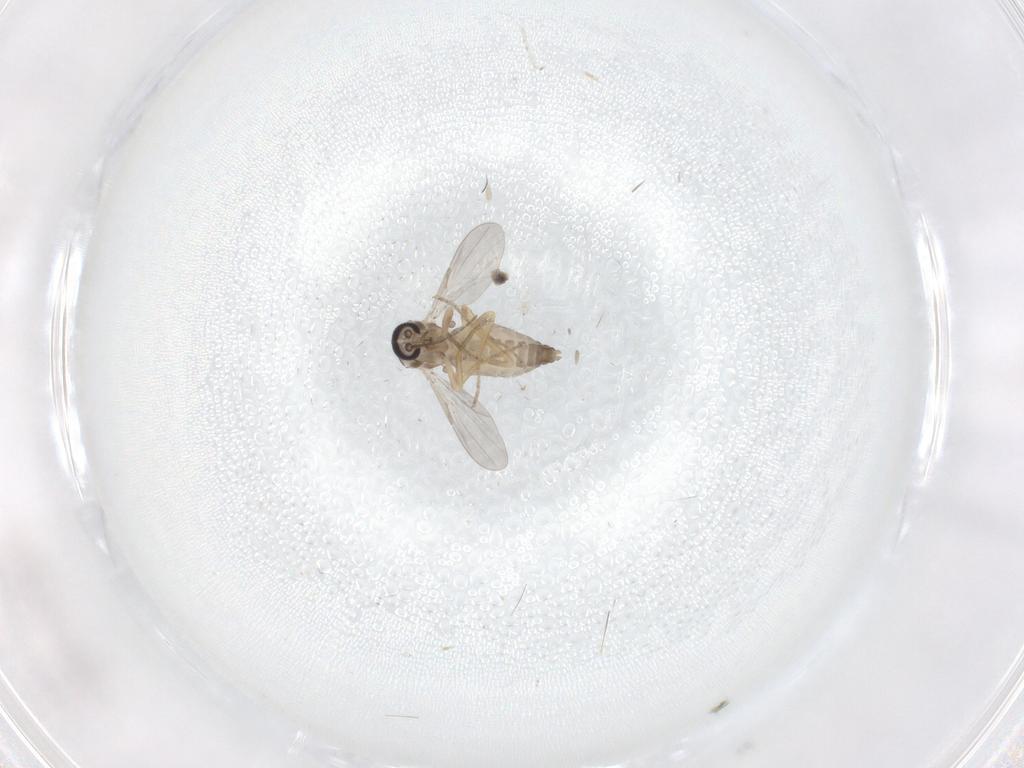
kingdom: Animalia
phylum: Arthropoda
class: Insecta
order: Diptera
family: Ceratopogonidae
